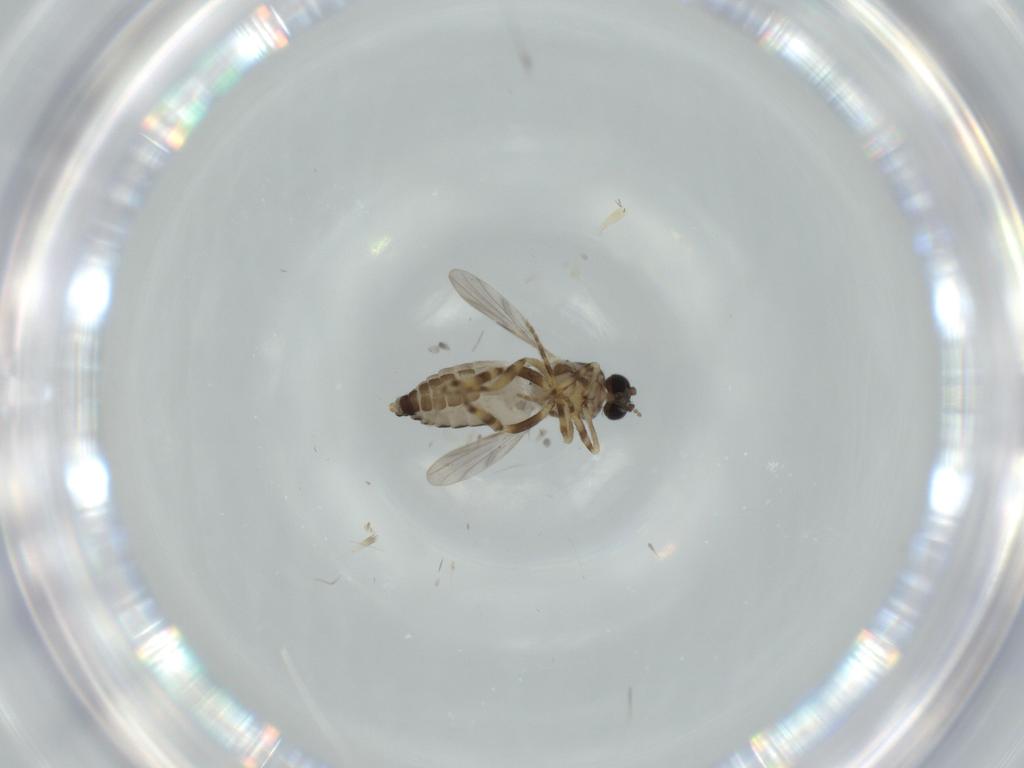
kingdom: Animalia
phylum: Arthropoda
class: Insecta
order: Diptera
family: Ceratopogonidae
